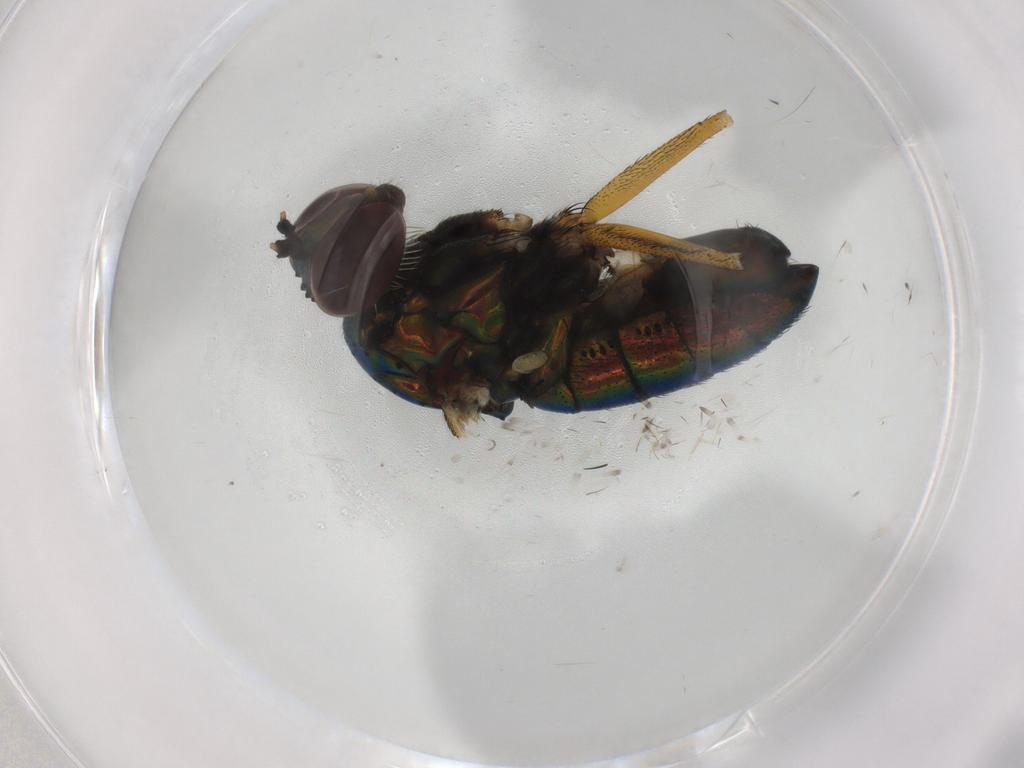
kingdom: Animalia
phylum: Arthropoda
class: Insecta
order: Diptera
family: Dolichopodidae
